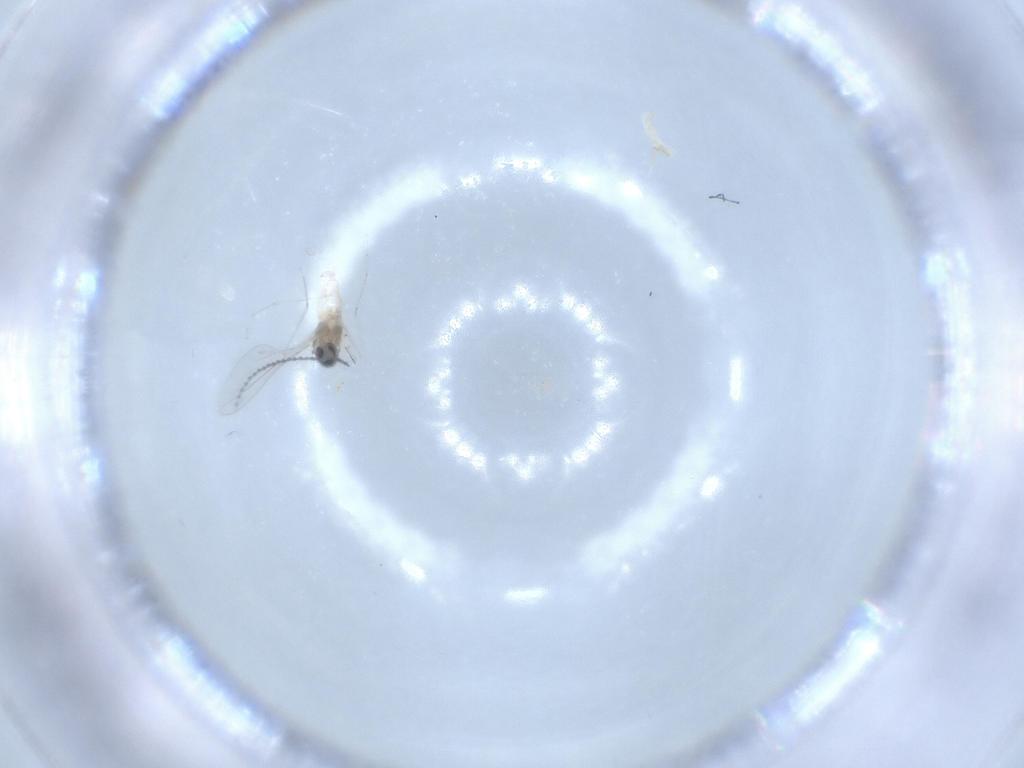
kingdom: Animalia
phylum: Arthropoda
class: Insecta
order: Diptera
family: Cecidomyiidae
